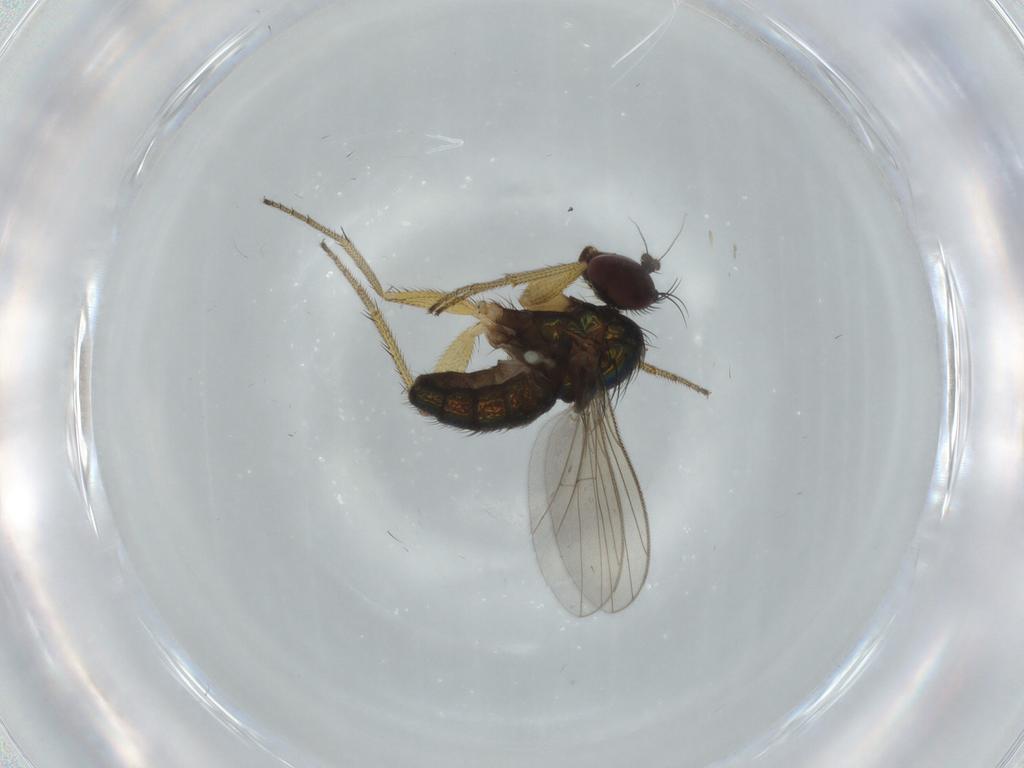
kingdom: Animalia
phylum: Arthropoda
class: Insecta
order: Diptera
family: Dolichopodidae
